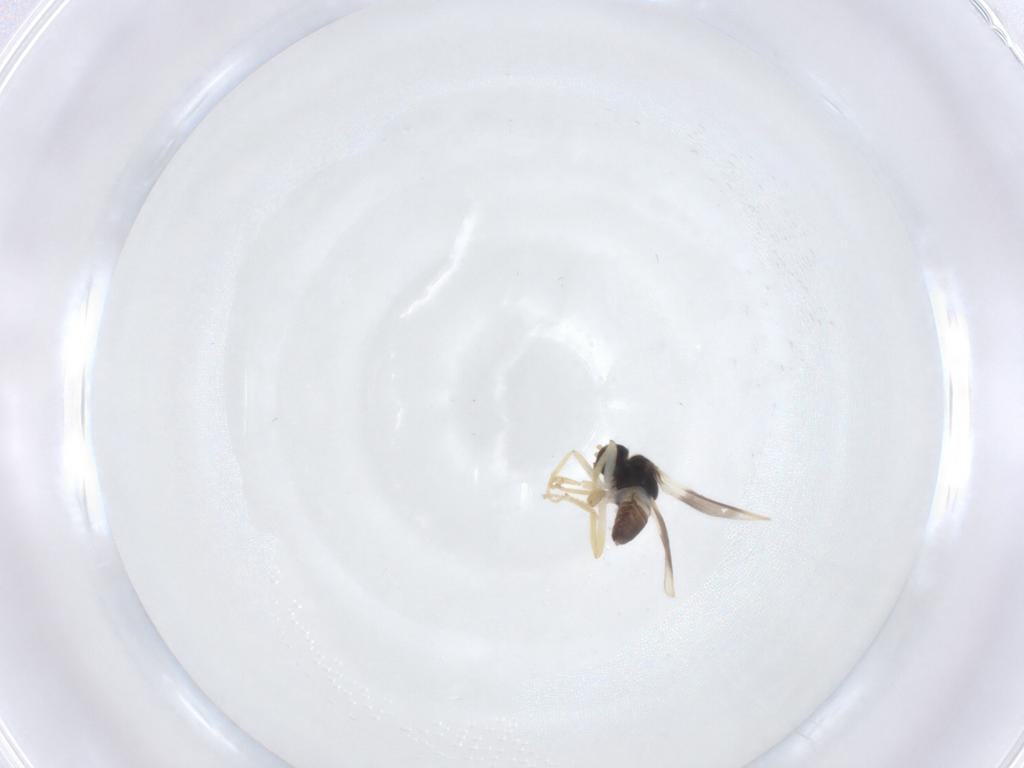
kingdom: Animalia
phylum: Arthropoda
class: Insecta
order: Diptera
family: Hybotidae
